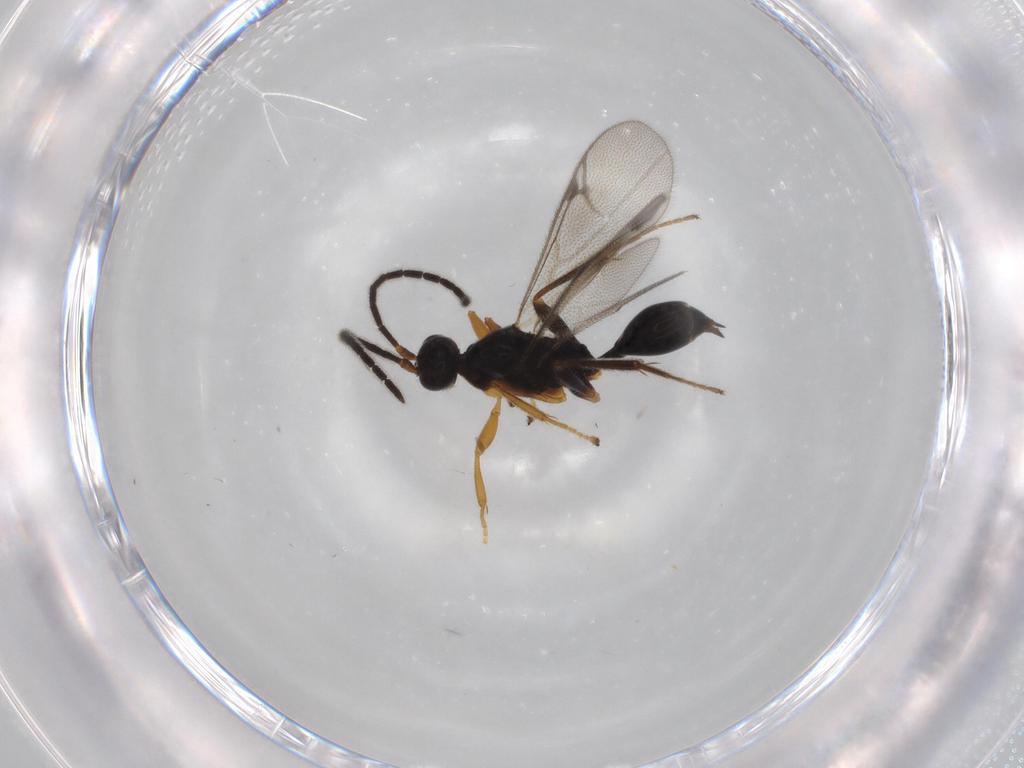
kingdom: Animalia
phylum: Arthropoda
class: Insecta
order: Hymenoptera
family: Proctotrupidae
